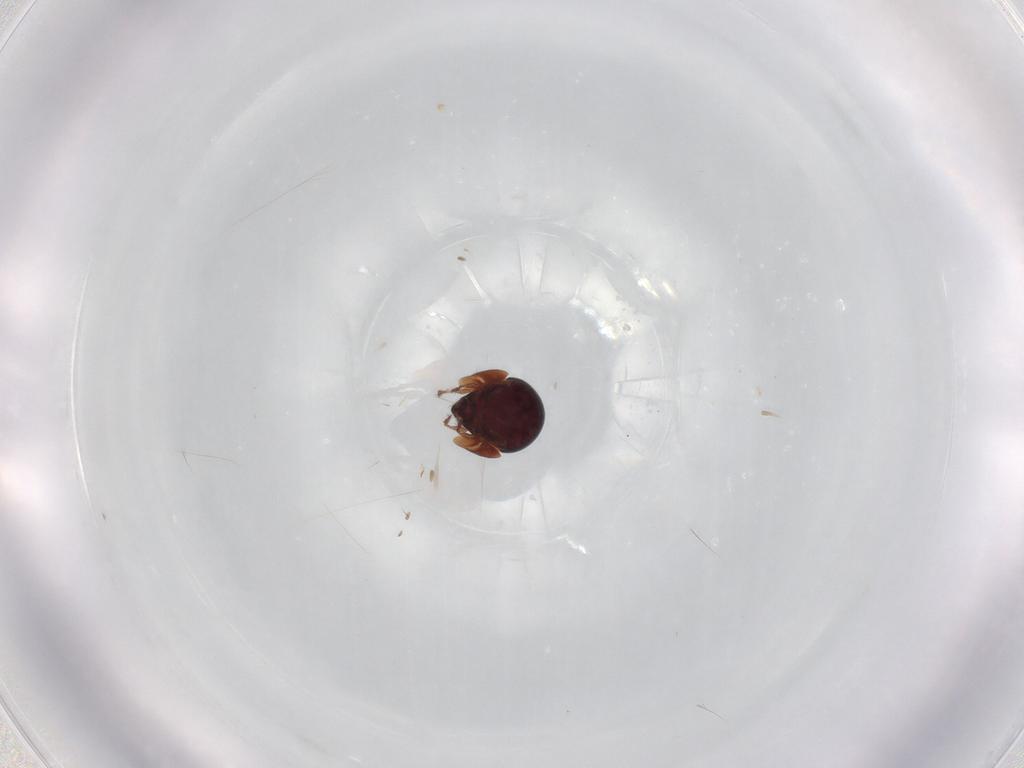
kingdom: Animalia
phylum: Arthropoda
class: Arachnida
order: Sarcoptiformes
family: Galumnidae
